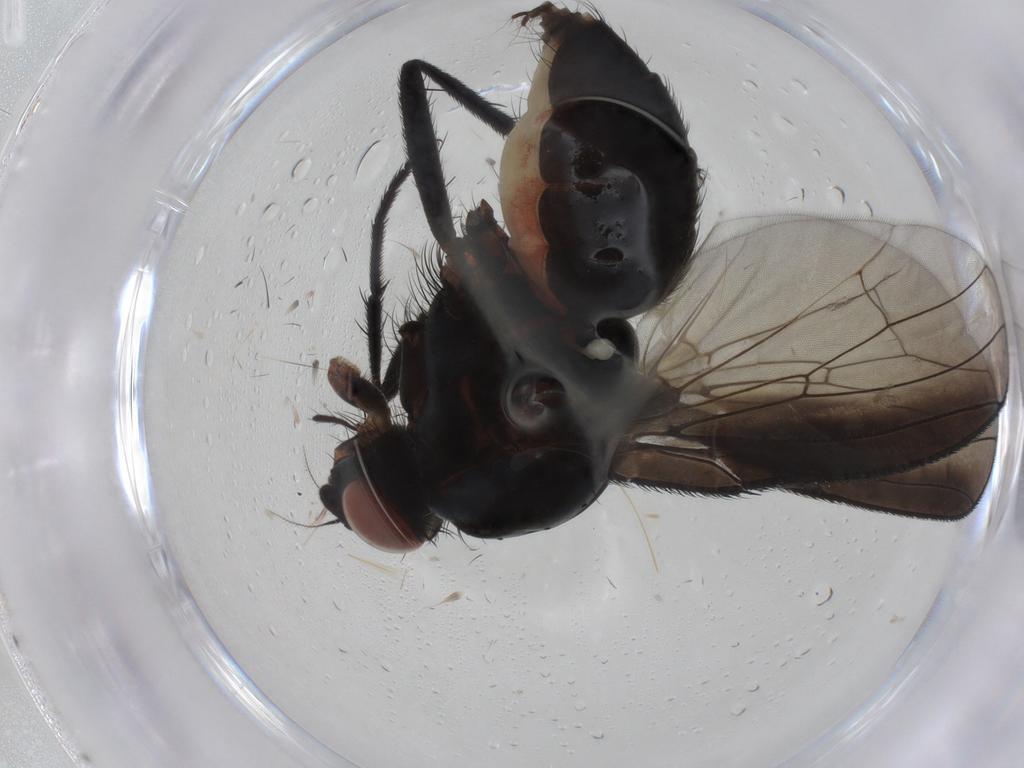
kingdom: Animalia
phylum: Arthropoda
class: Insecta
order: Diptera
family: Anthomyiidae
